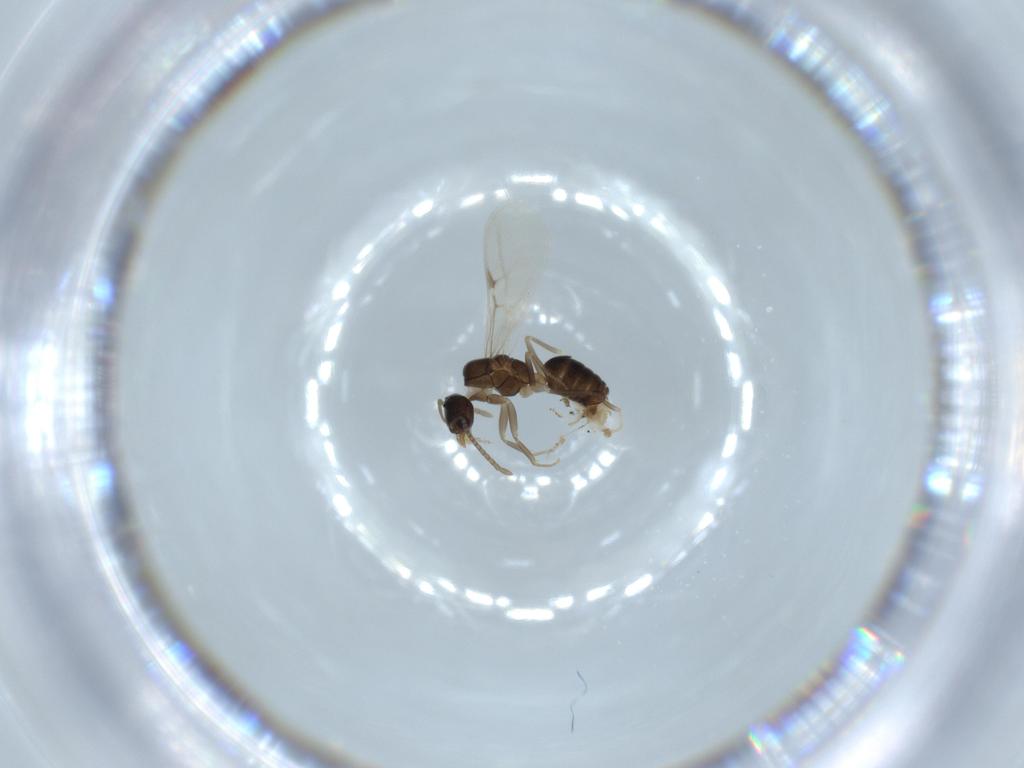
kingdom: Animalia
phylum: Arthropoda
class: Insecta
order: Hymenoptera
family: Formicidae
